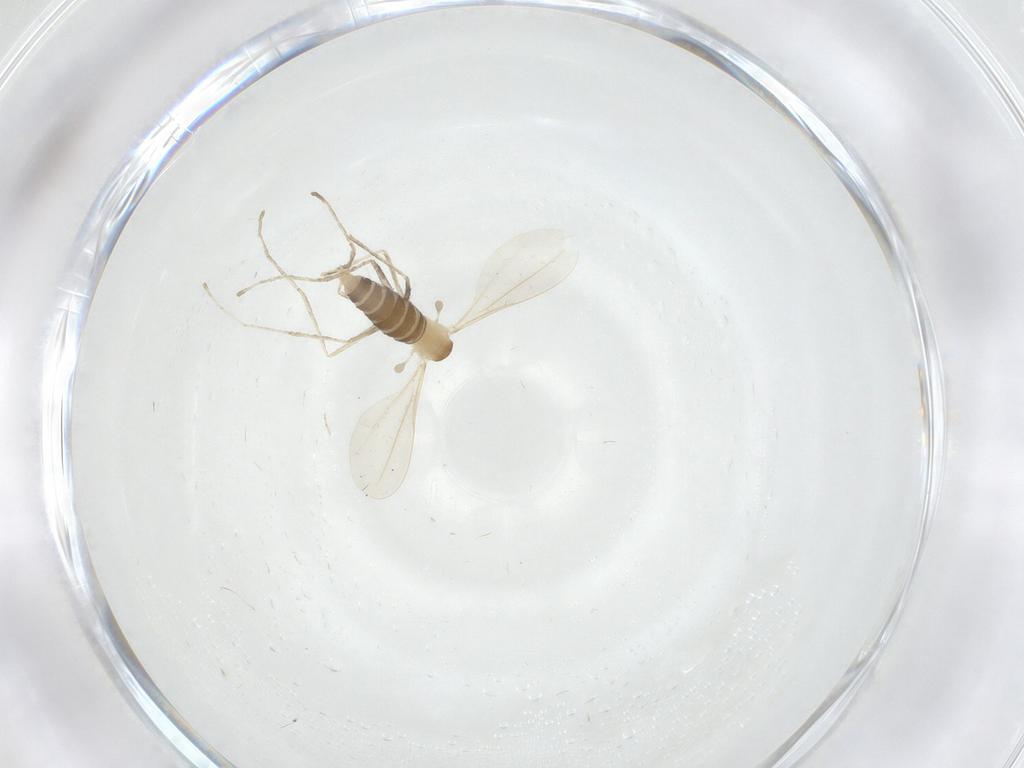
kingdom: Animalia
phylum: Arthropoda
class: Insecta
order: Diptera
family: Cecidomyiidae
